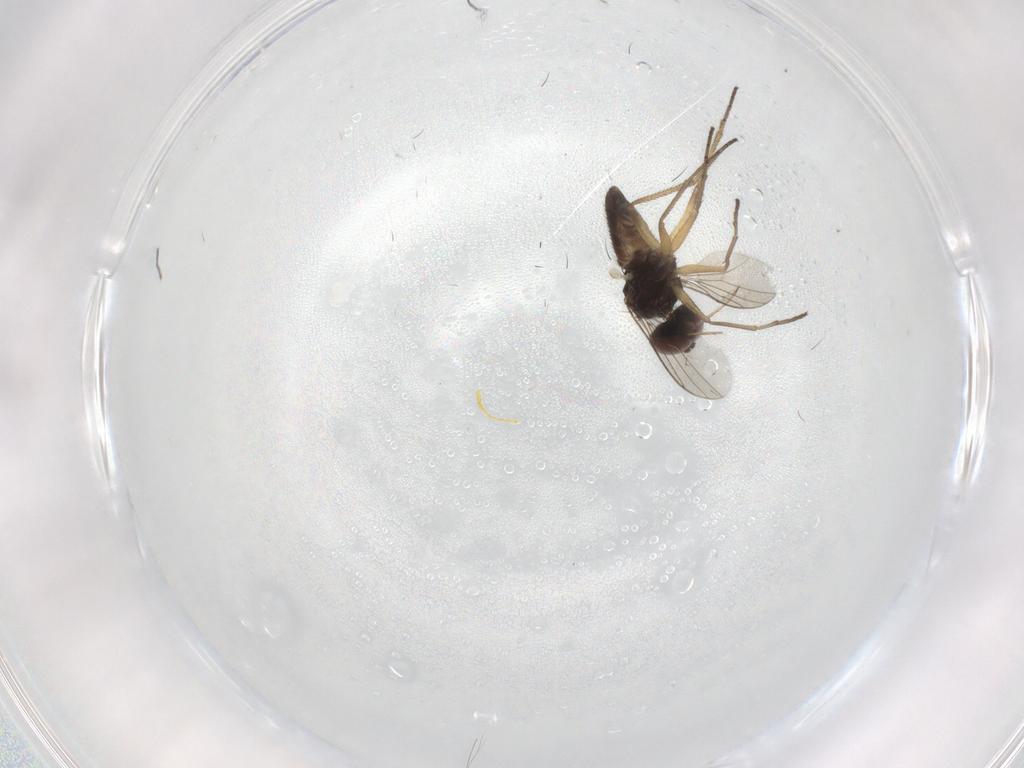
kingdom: Animalia
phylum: Arthropoda
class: Insecta
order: Diptera
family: Dolichopodidae
